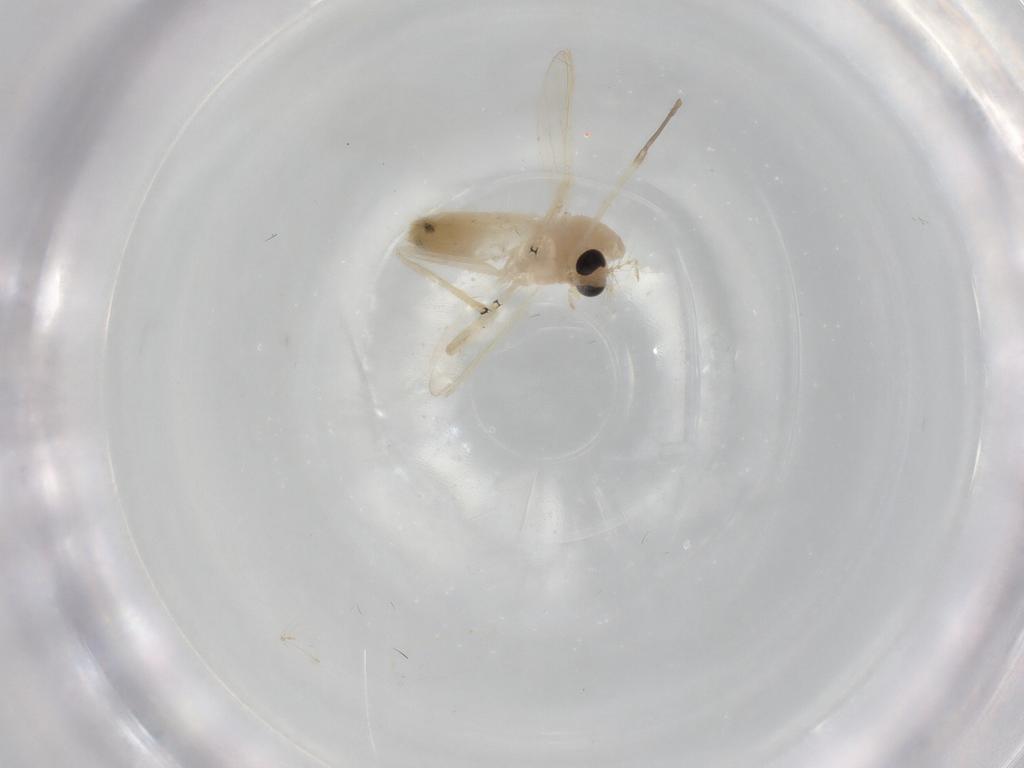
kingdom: Animalia
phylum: Arthropoda
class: Insecta
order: Diptera
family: Chironomidae
